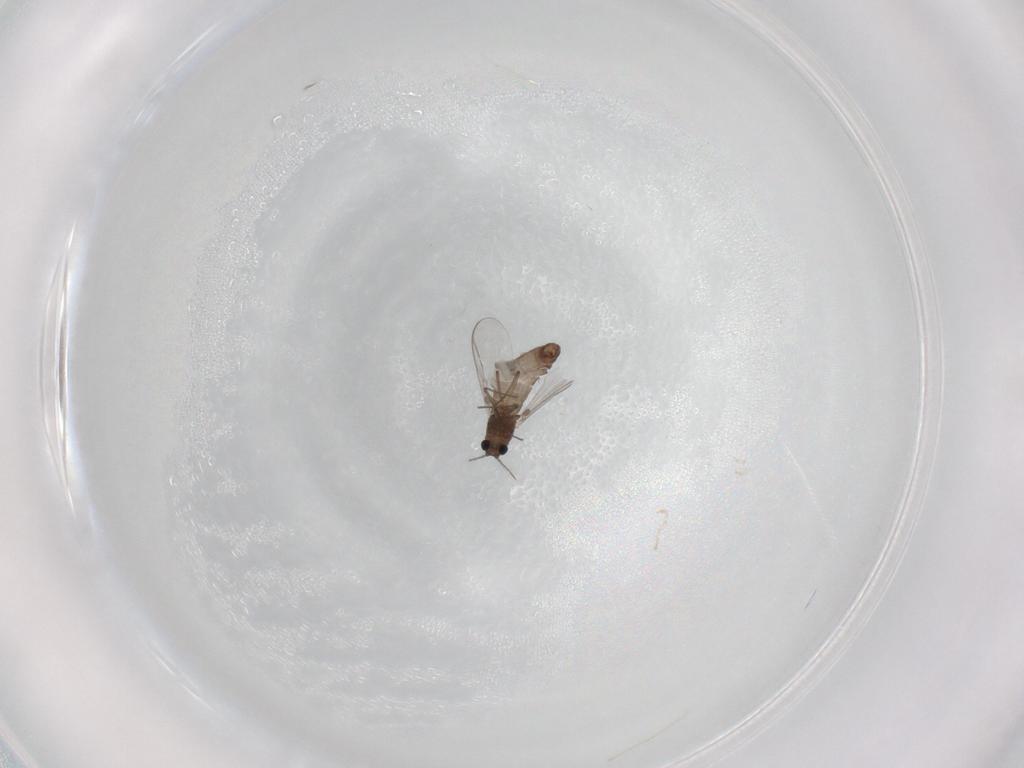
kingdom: Animalia
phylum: Arthropoda
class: Insecta
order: Diptera
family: Chironomidae
